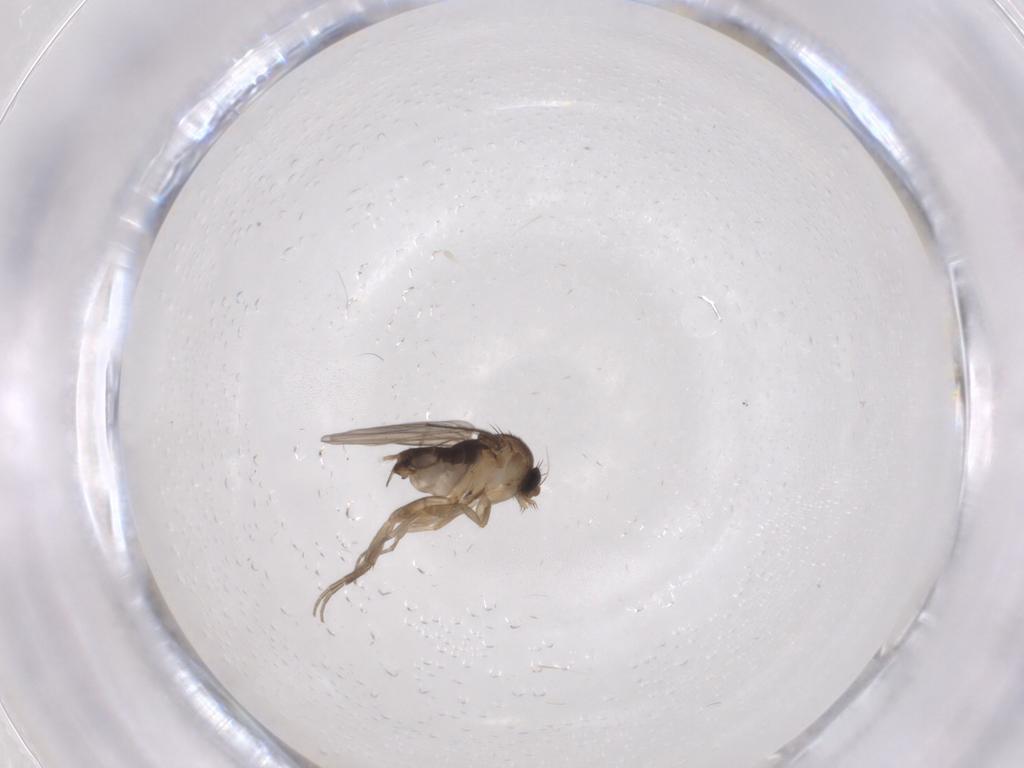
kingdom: Animalia
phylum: Arthropoda
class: Insecta
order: Diptera
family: Phoridae
